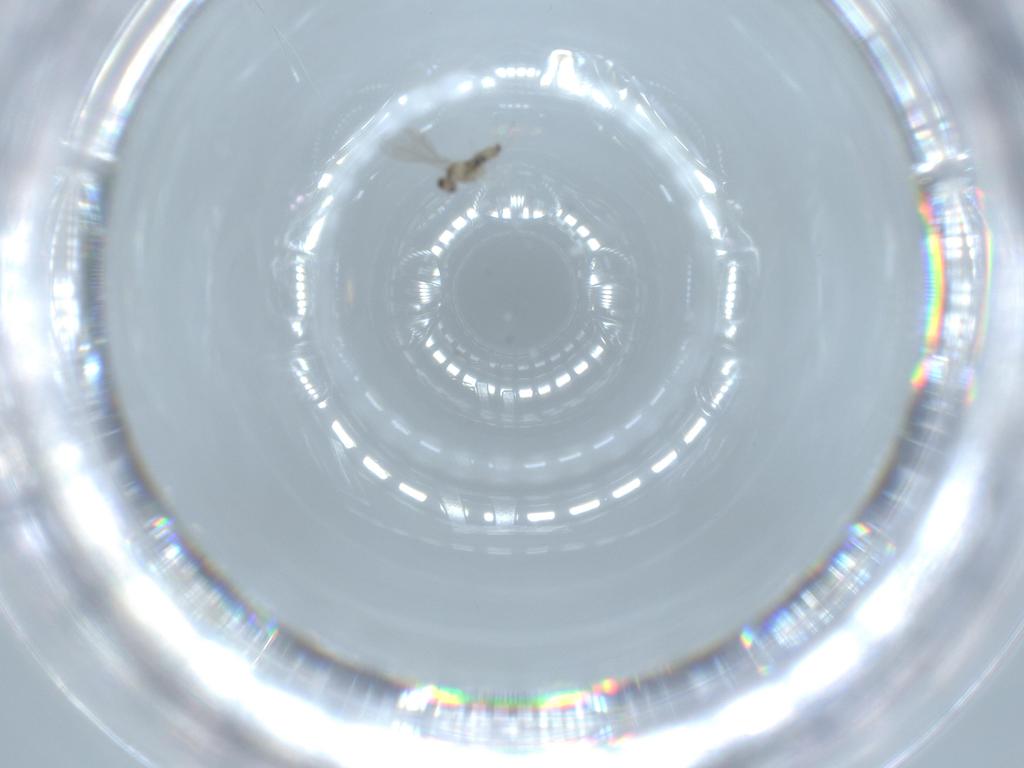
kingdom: Animalia
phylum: Arthropoda
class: Insecta
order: Diptera
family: Cecidomyiidae
